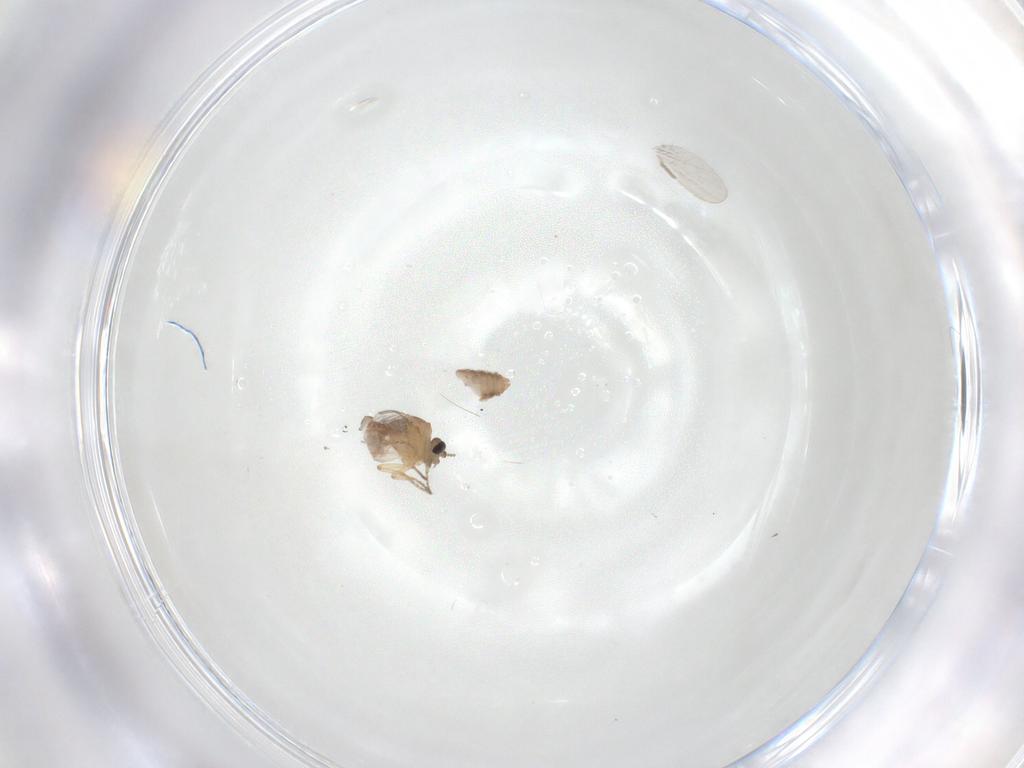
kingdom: Animalia
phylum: Arthropoda
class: Insecta
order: Diptera
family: Ceratopogonidae
